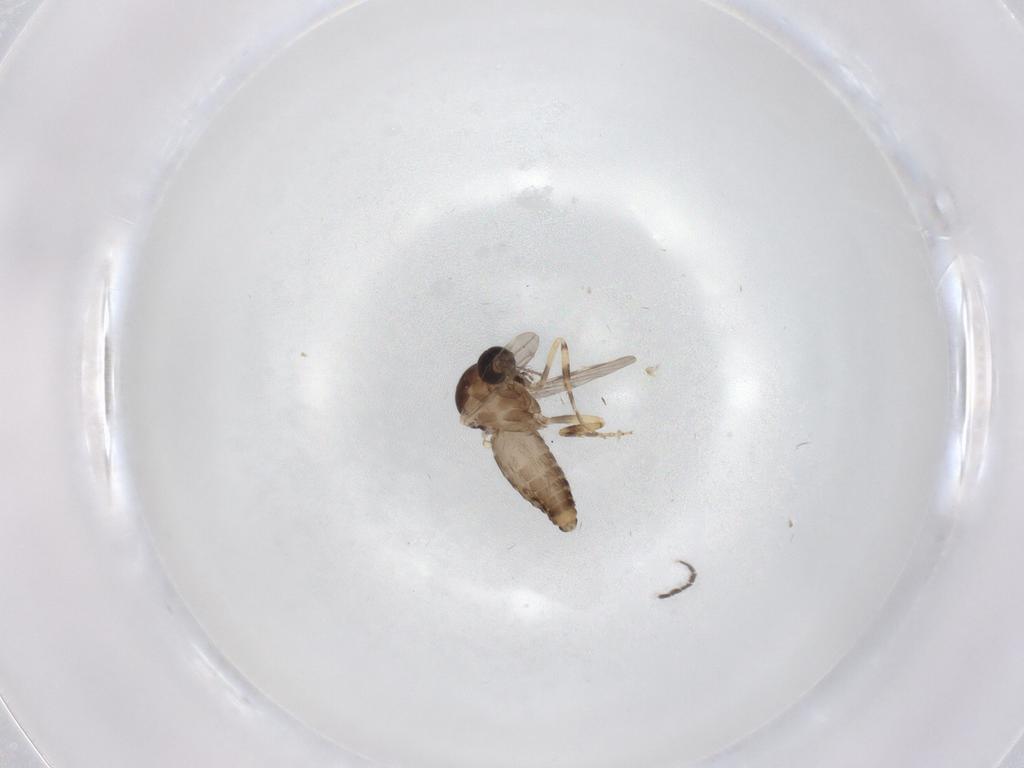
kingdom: Animalia
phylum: Arthropoda
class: Insecta
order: Diptera
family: Ceratopogonidae
